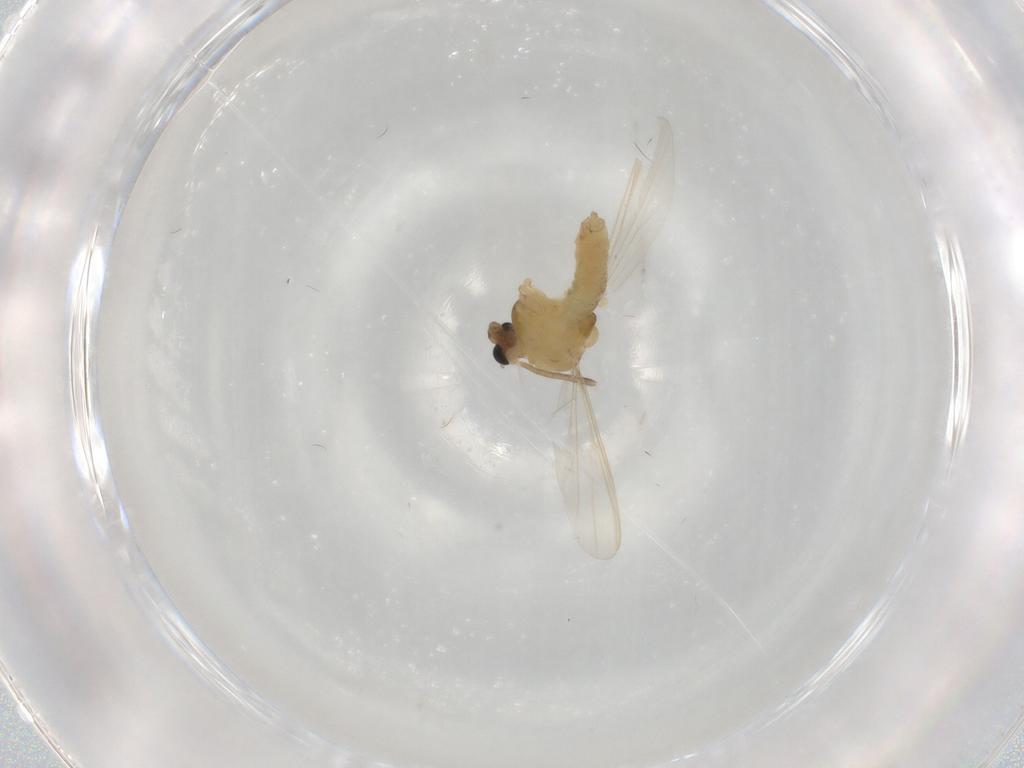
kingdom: Animalia
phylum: Arthropoda
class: Insecta
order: Diptera
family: Chironomidae
